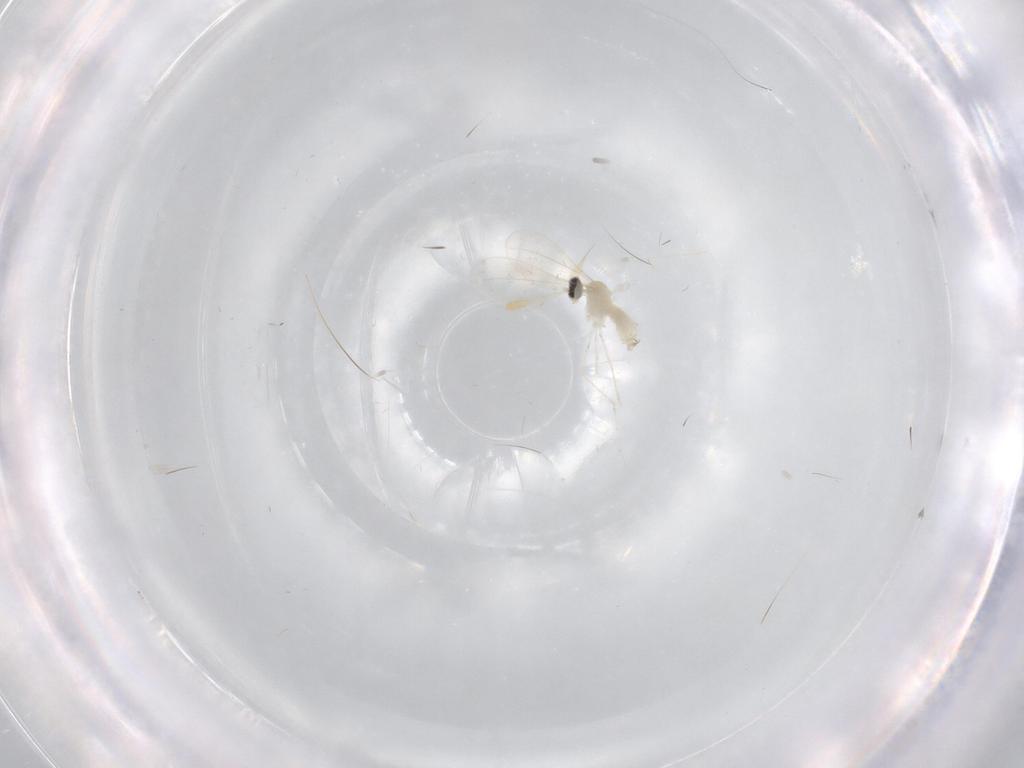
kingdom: Animalia
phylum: Arthropoda
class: Insecta
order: Diptera
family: Cecidomyiidae
